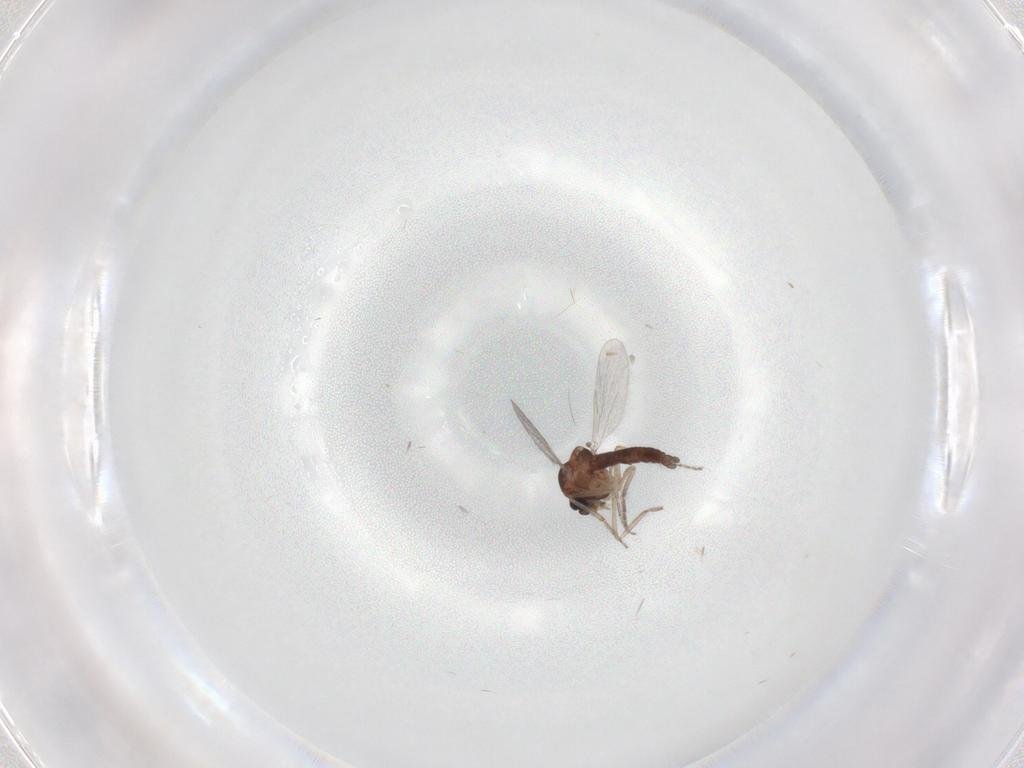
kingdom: Animalia
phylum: Arthropoda
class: Insecta
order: Diptera
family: Ceratopogonidae
